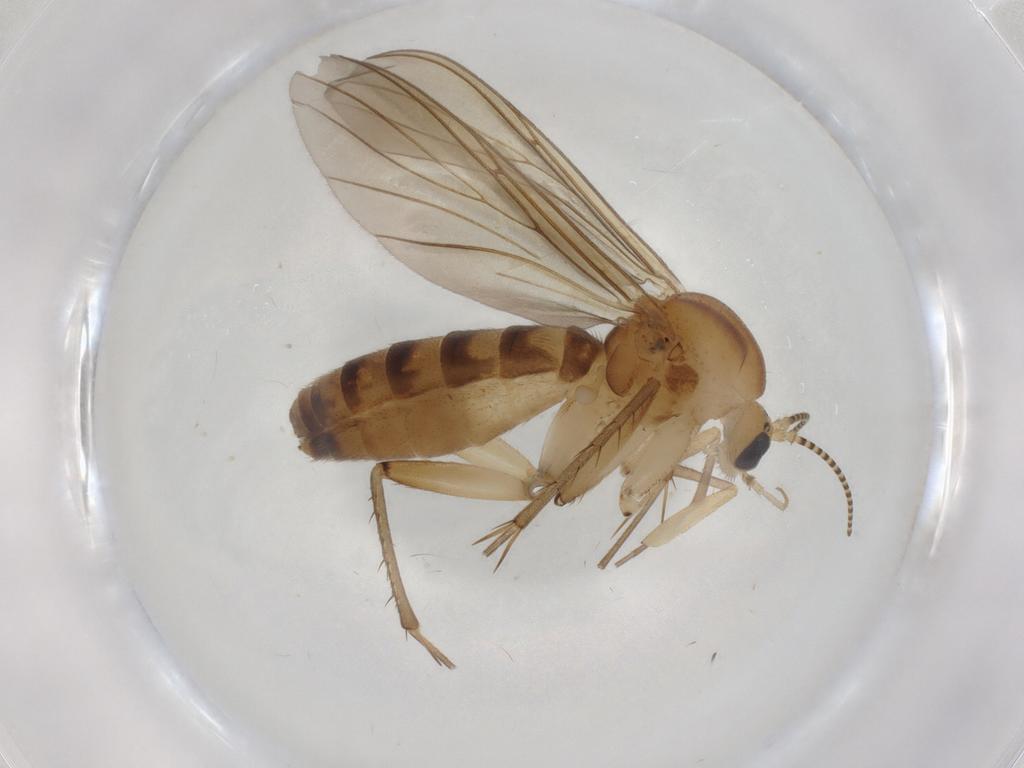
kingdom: Animalia
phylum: Arthropoda
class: Insecta
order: Diptera
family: Mycetophilidae
